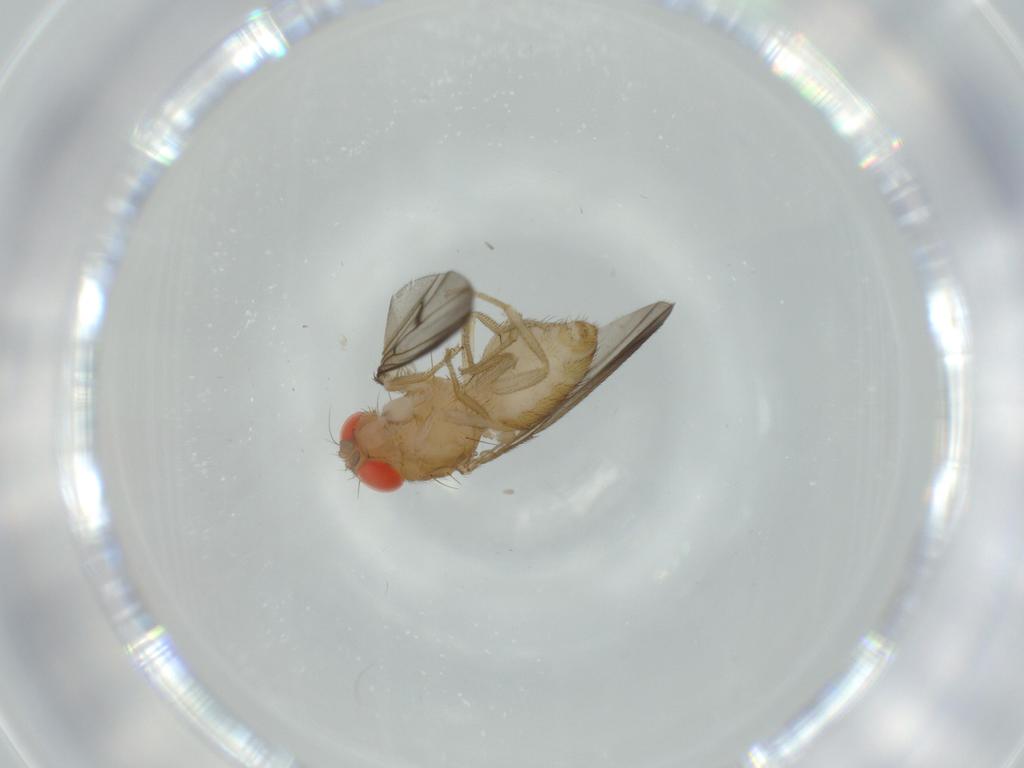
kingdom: Animalia
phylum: Arthropoda
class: Insecta
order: Diptera
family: Drosophilidae
